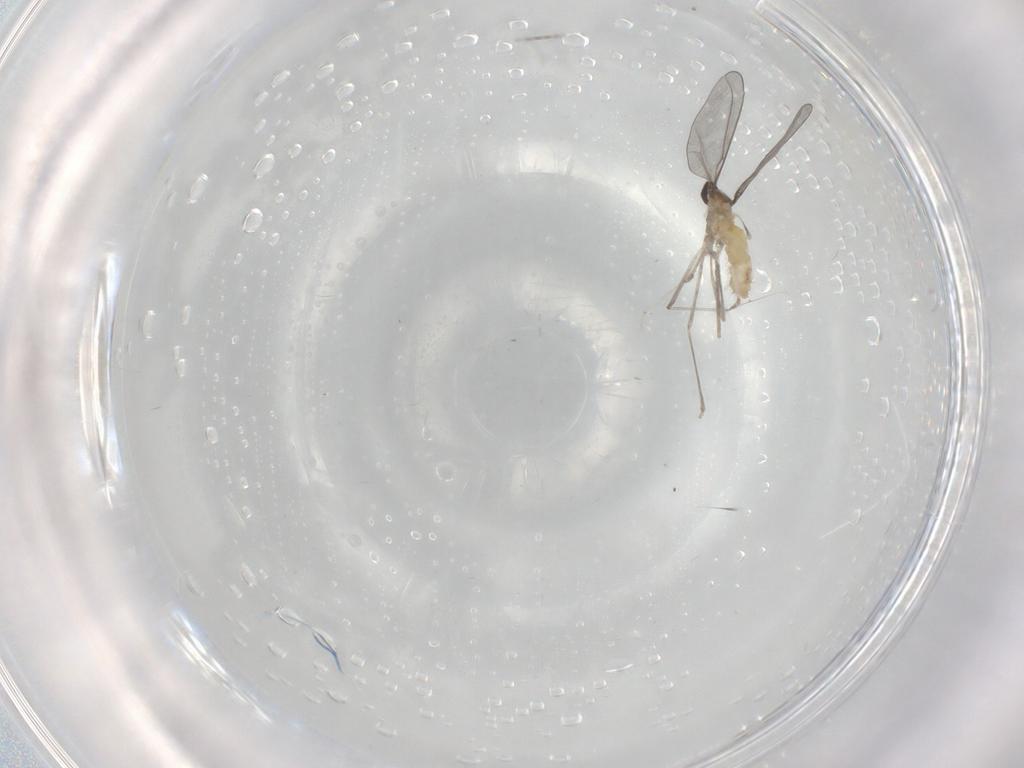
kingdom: Animalia
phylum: Arthropoda
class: Insecta
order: Diptera
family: Cecidomyiidae
